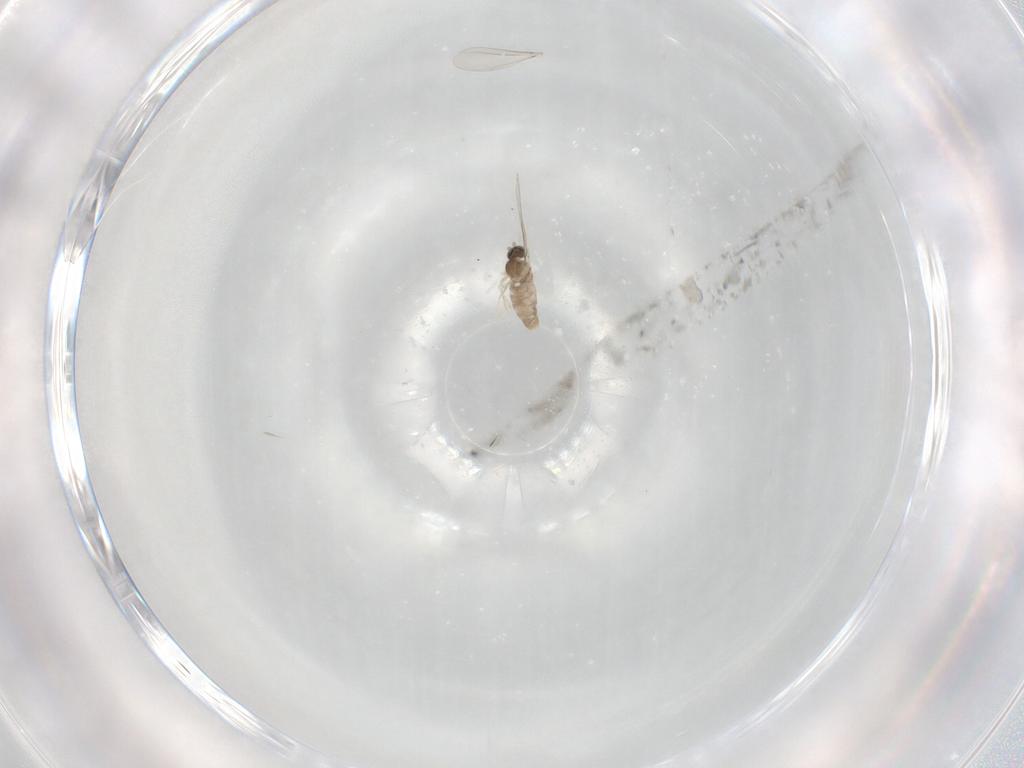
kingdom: Animalia
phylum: Arthropoda
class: Insecta
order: Diptera
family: Cecidomyiidae
